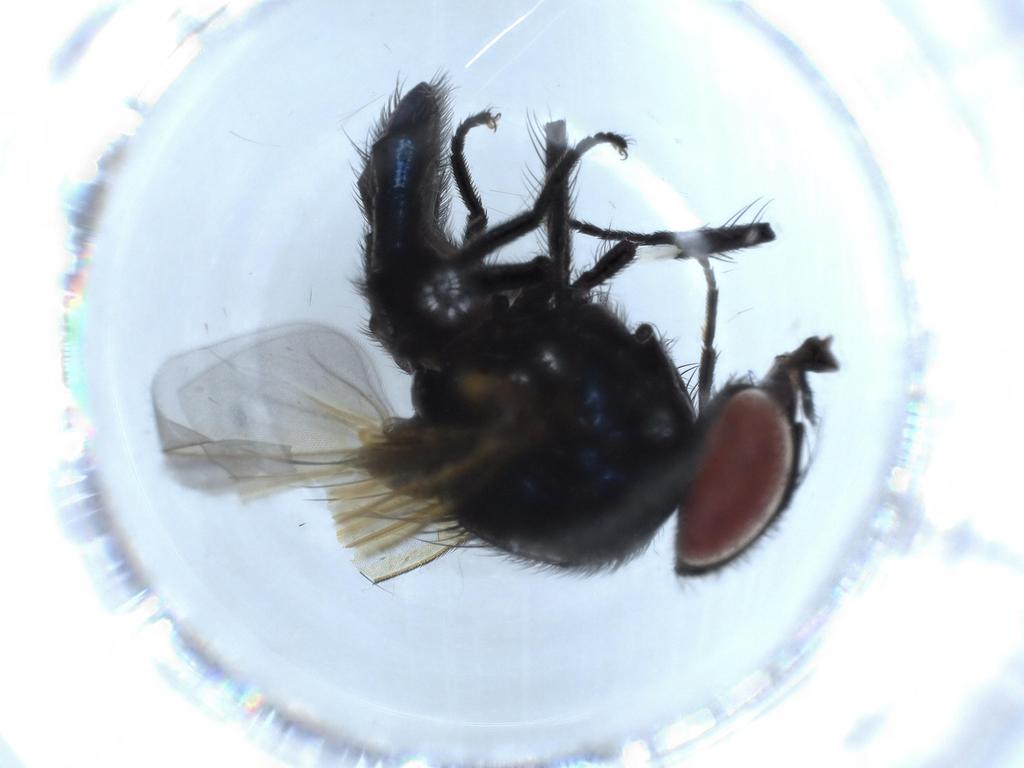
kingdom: Animalia
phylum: Arthropoda
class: Insecta
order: Diptera
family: Lonchaeidae
